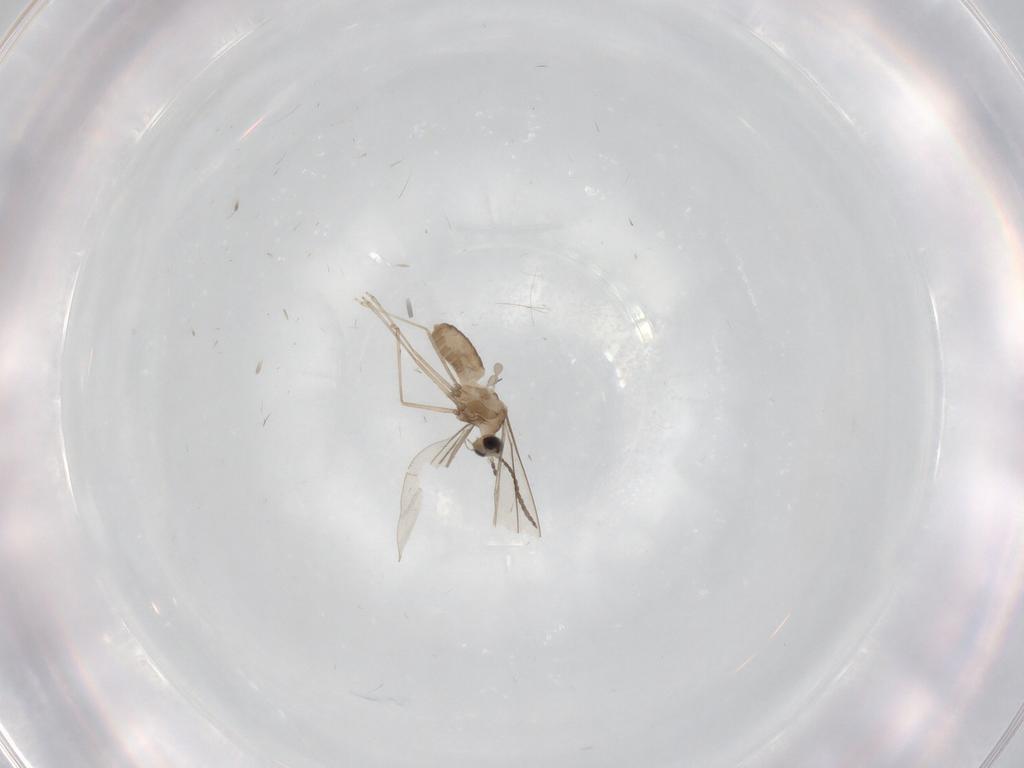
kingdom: Animalia
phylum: Arthropoda
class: Insecta
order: Diptera
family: Cecidomyiidae
